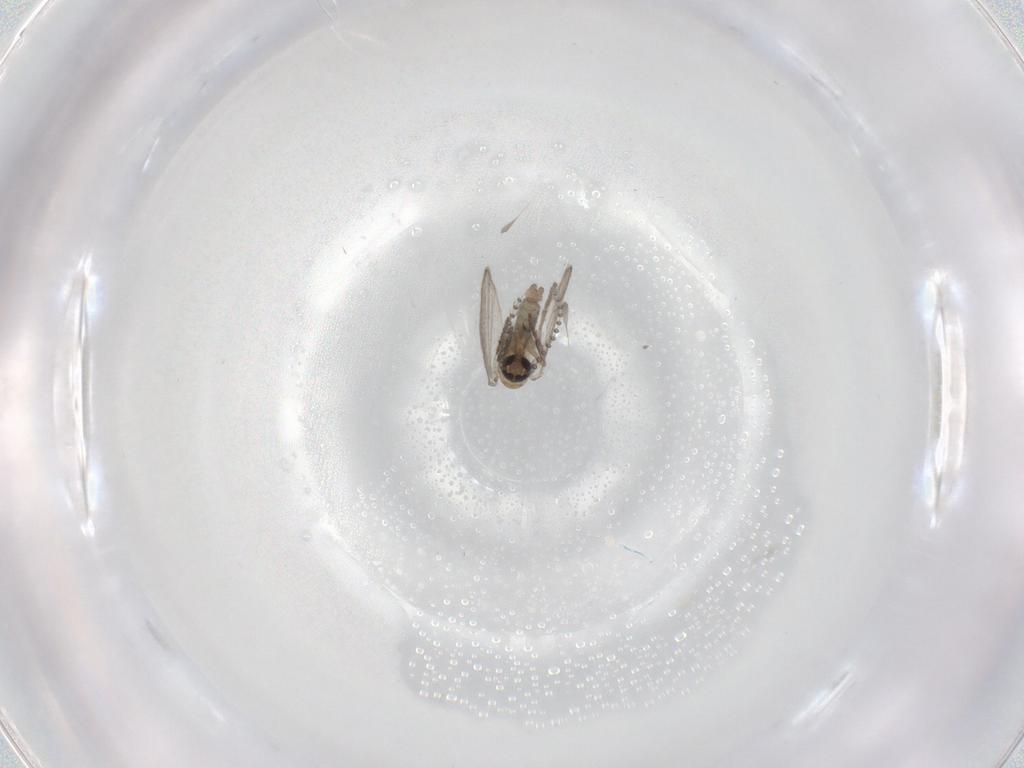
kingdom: Animalia
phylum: Arthropoda
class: Insecta
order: Diptera
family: Psychodidae
